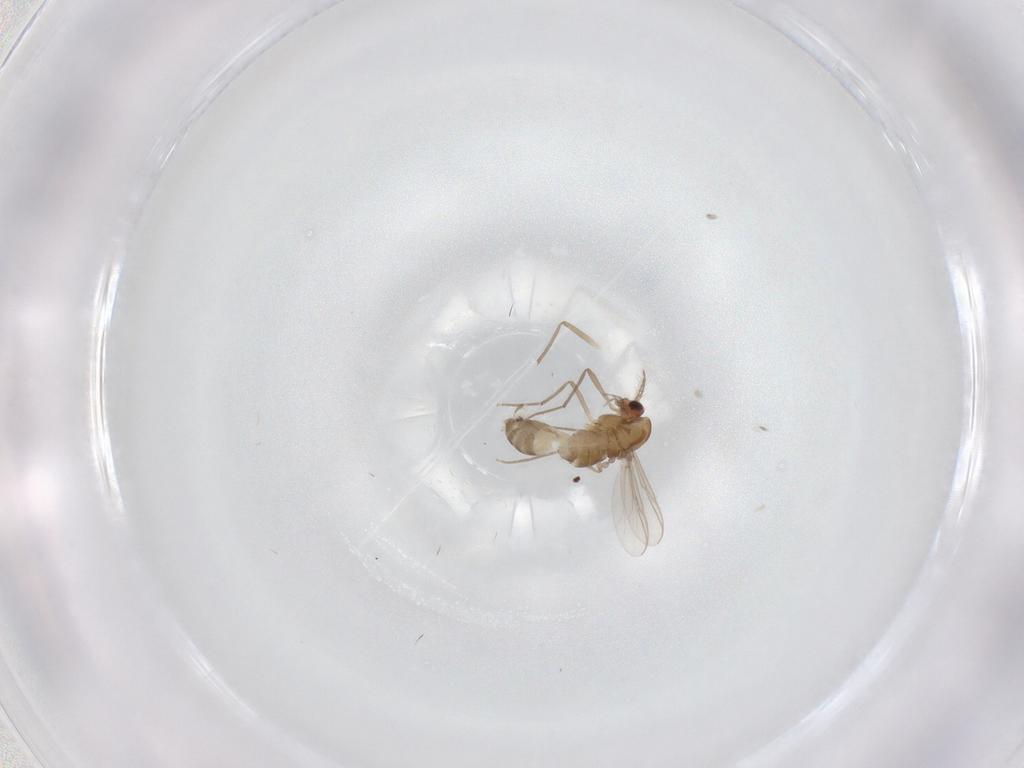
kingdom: Animalia
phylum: Arthropoda
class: Insecta
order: Diptera
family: Chironomidae
